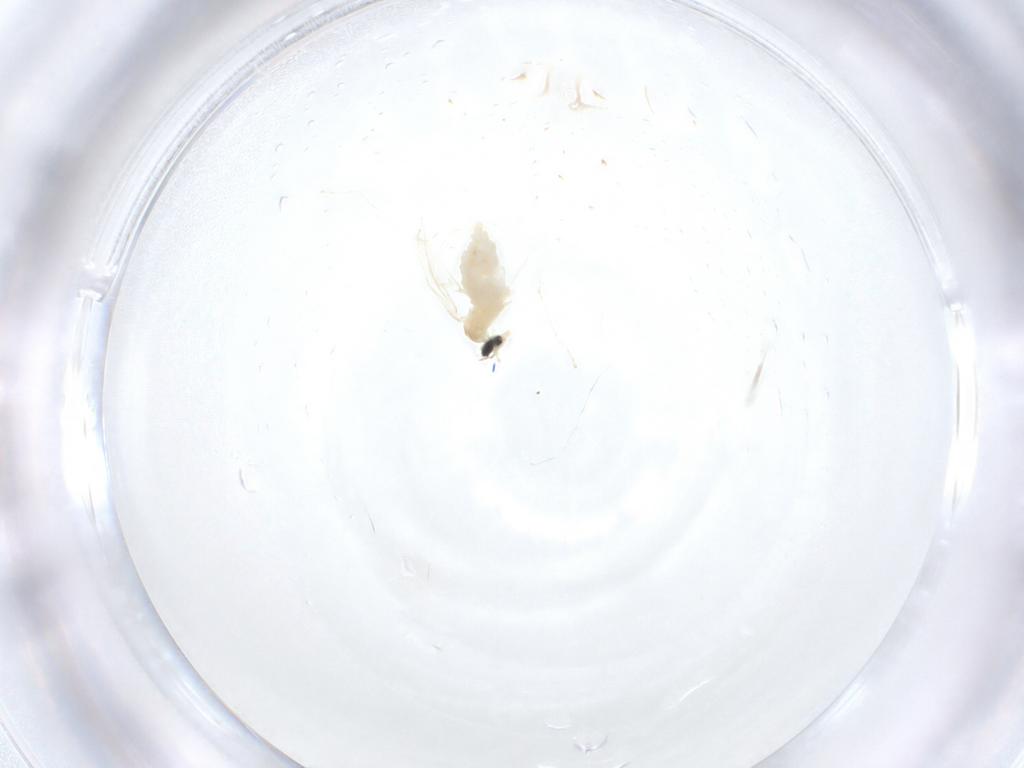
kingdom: Animalia
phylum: Arthropoda
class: Insecta
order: Diptera
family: Cecidomyiidae
